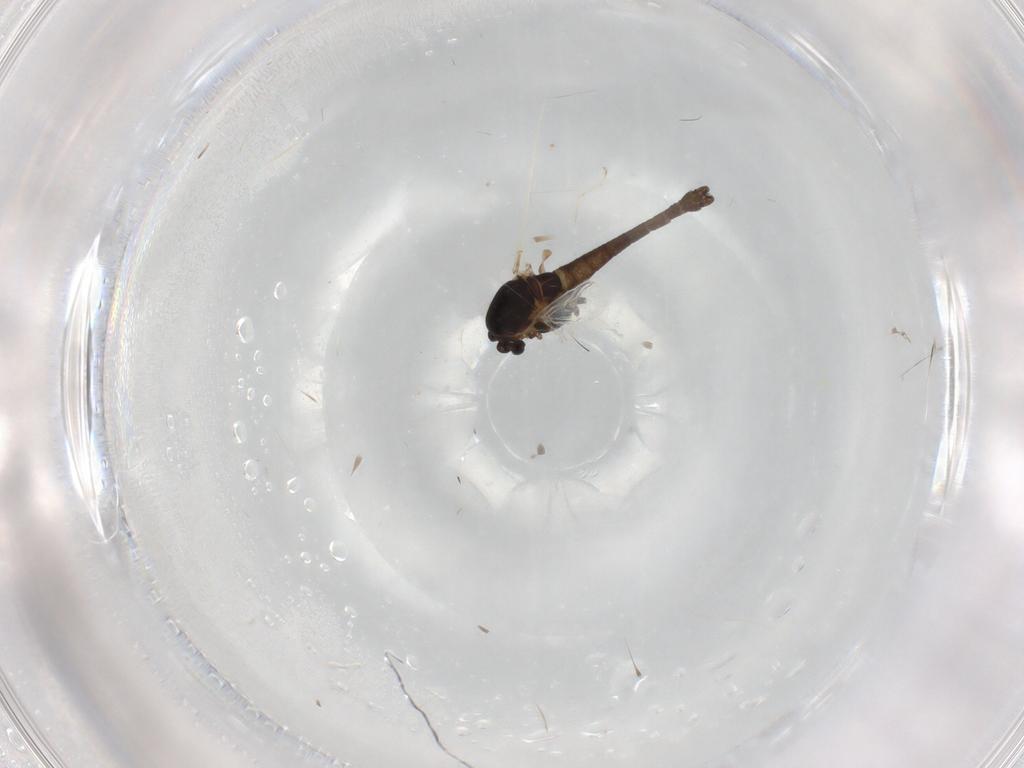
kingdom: Animalia
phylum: Arthropoda
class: Insecta
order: Diptera
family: Chironomidae
